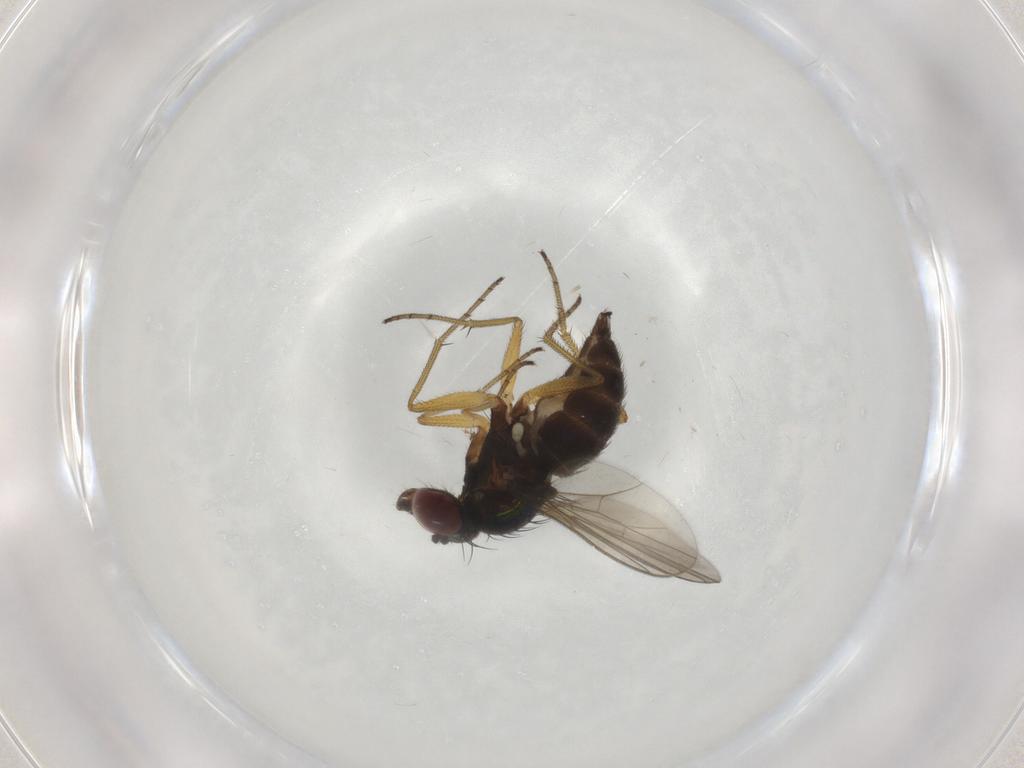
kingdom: Animalia
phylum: Arthropoda
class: Insecta
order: Diptera
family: Dolichopodidae
